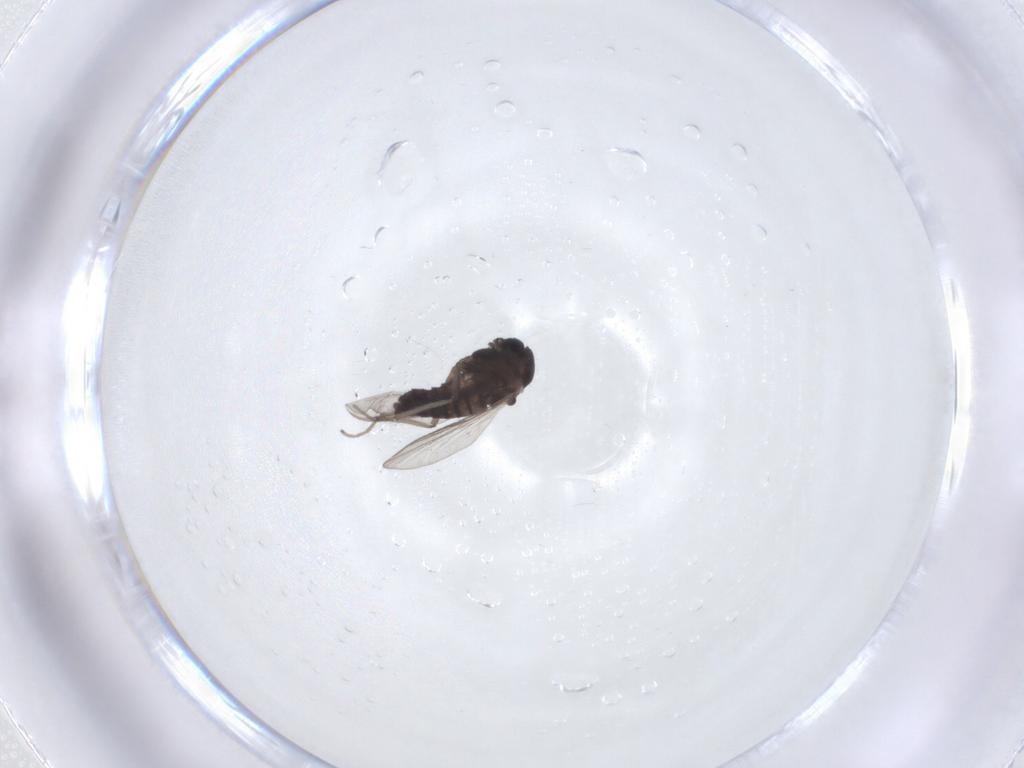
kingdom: Animalia
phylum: Arthropoda
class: Insecta
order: Diptera
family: Chironomidae
